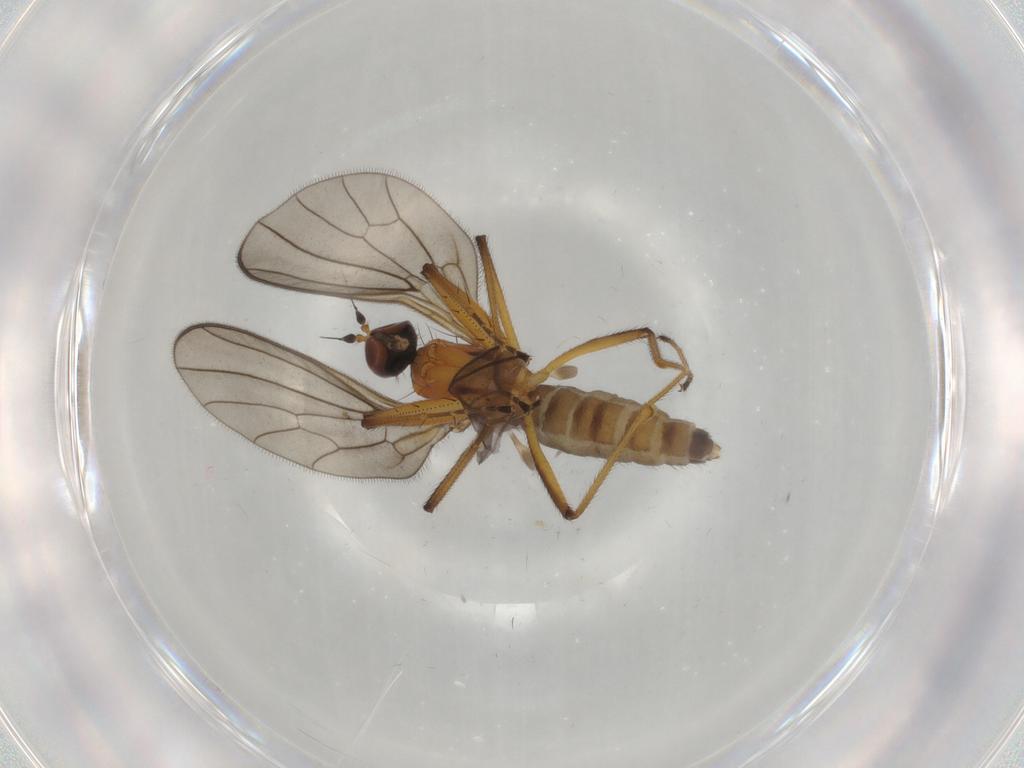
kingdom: Animalia
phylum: Arthropoda
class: Insecta
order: Diptera
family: Empididae
